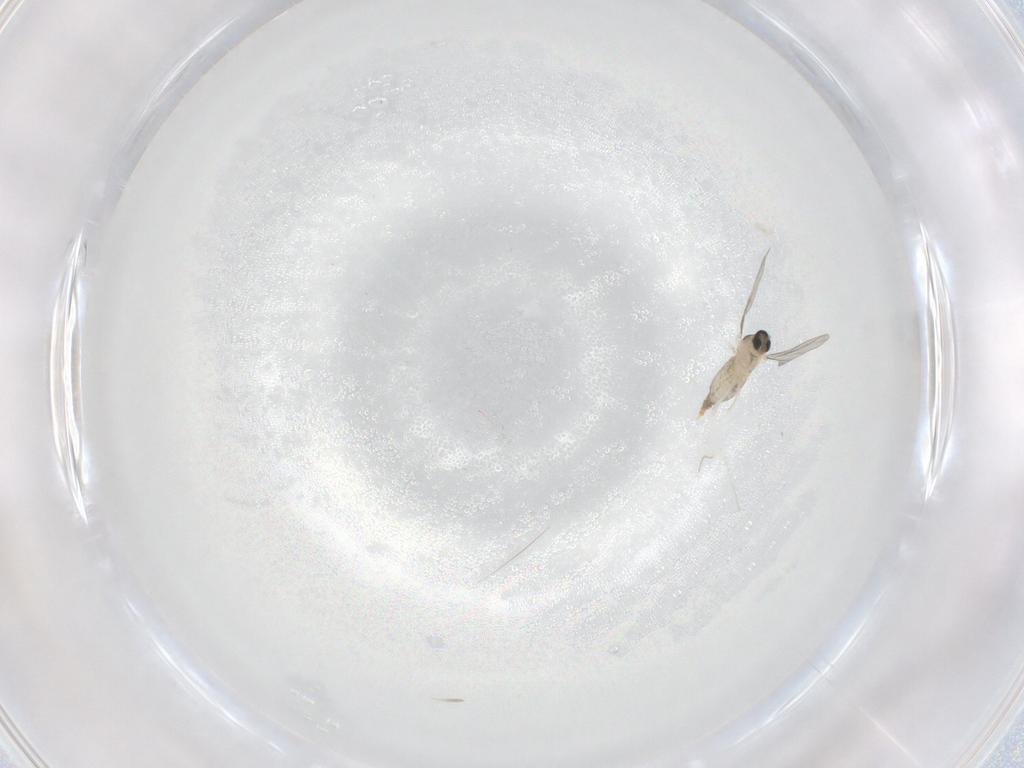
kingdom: Animalia
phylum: Arthropoda
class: Insecta
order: Diptera
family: Cecidomyiidae
